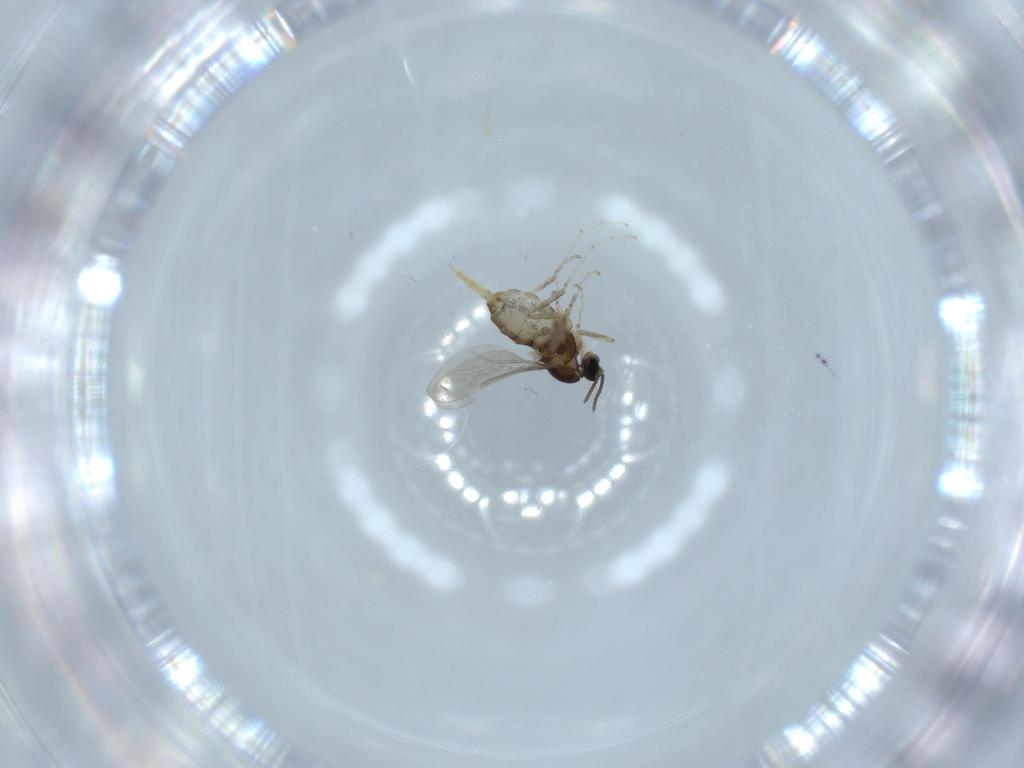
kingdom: Animalia
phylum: Arthropoda
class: Insecta
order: Diptera
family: Cecidomyiidae
